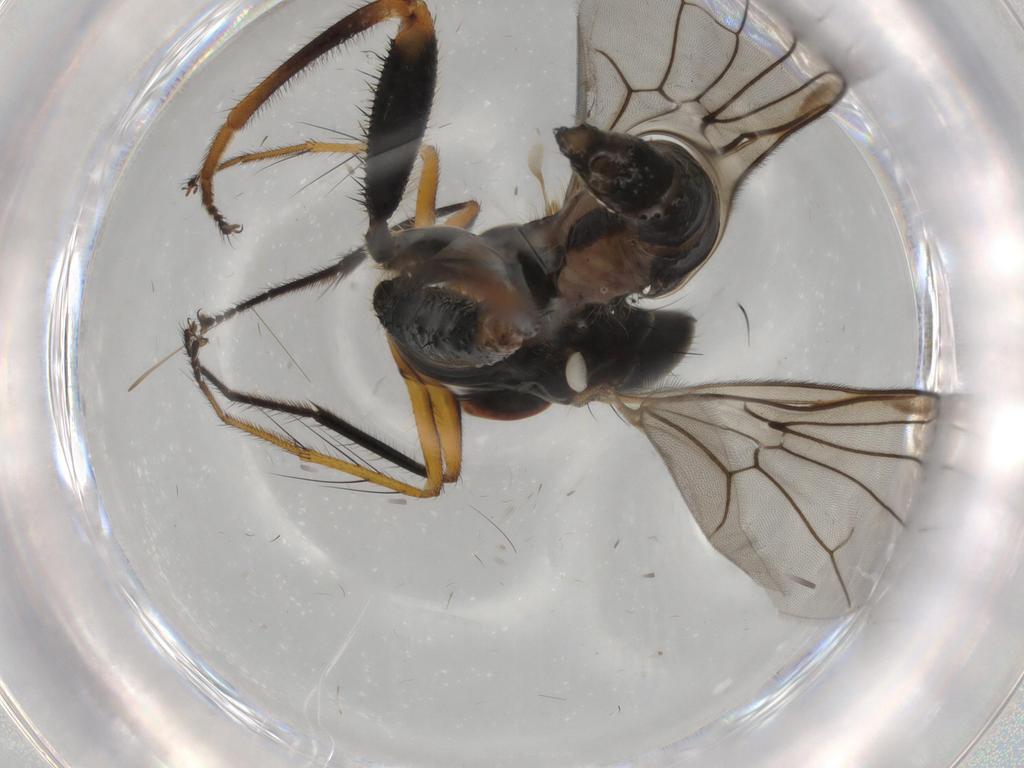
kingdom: Animalia
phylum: Arthropoda
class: Insecta
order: Diptera
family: Hybotidae
